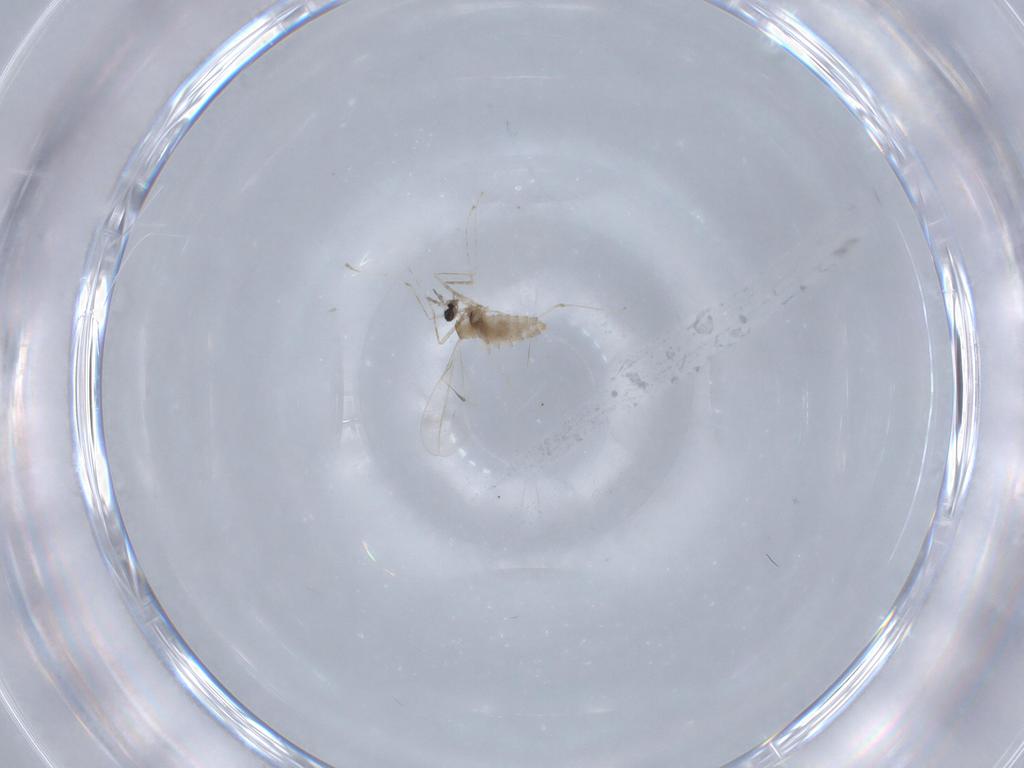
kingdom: Animalia
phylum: Arthropoda
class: Insecta
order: Diptera
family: Chironomidae
